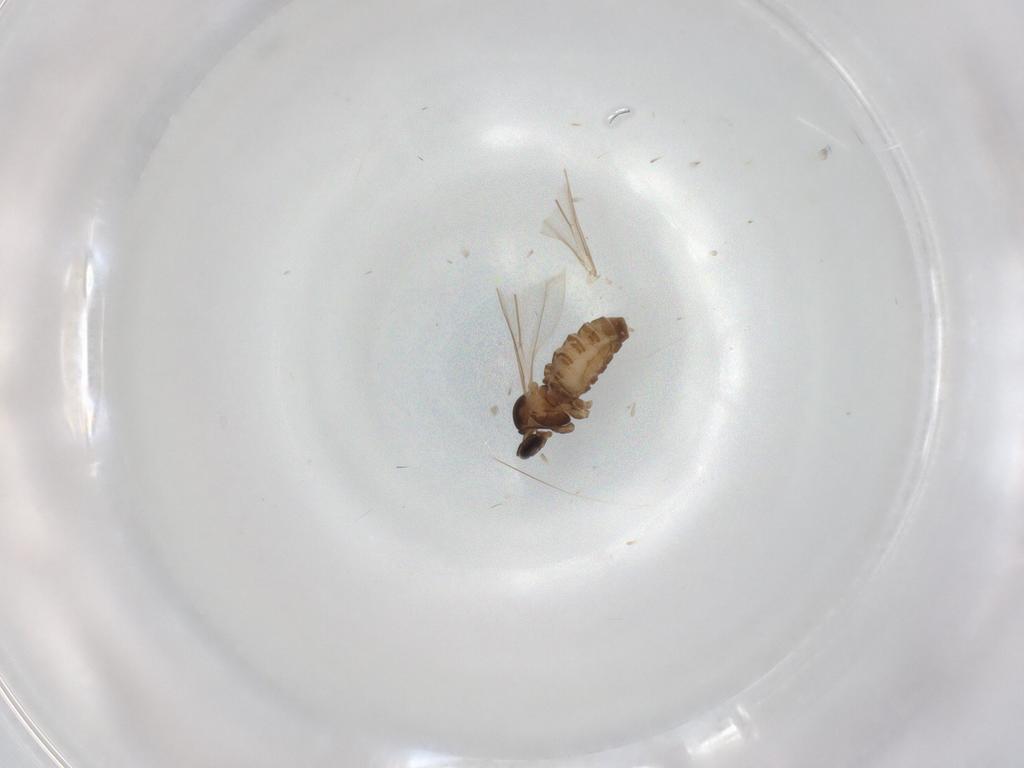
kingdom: Animalia
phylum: Arthropoda
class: Insecta
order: Diptera
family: Cecidomyiidae
